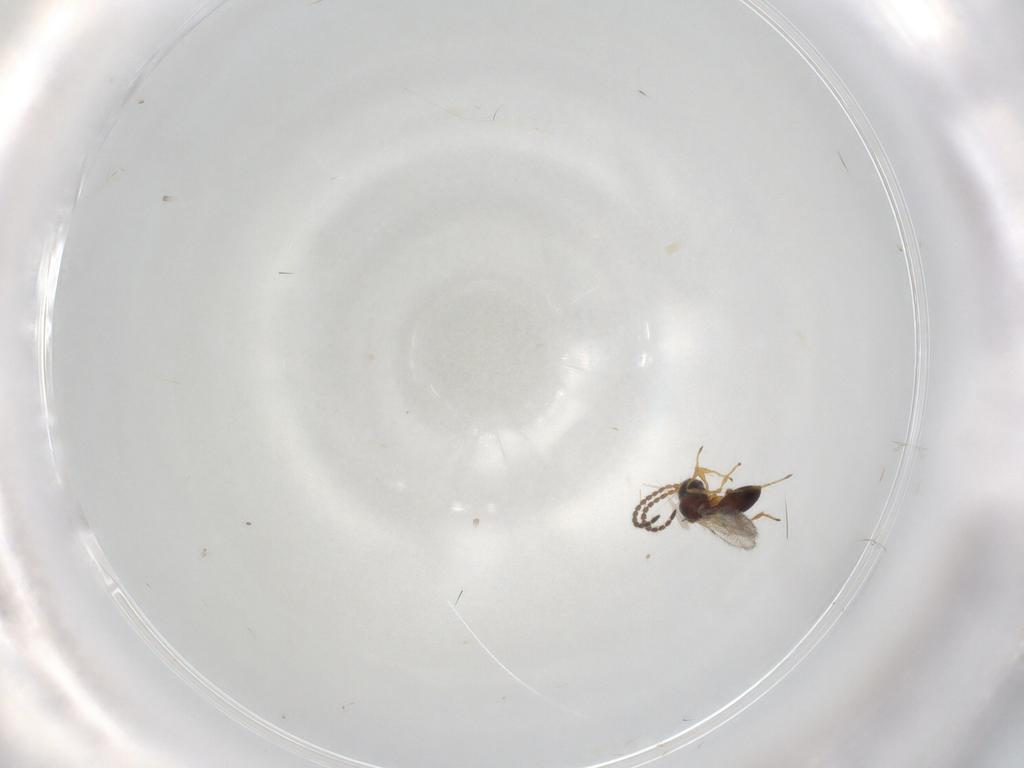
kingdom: Animalia
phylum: Arthropoda
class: Insecta
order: Hymenoptera
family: Diapriidae
